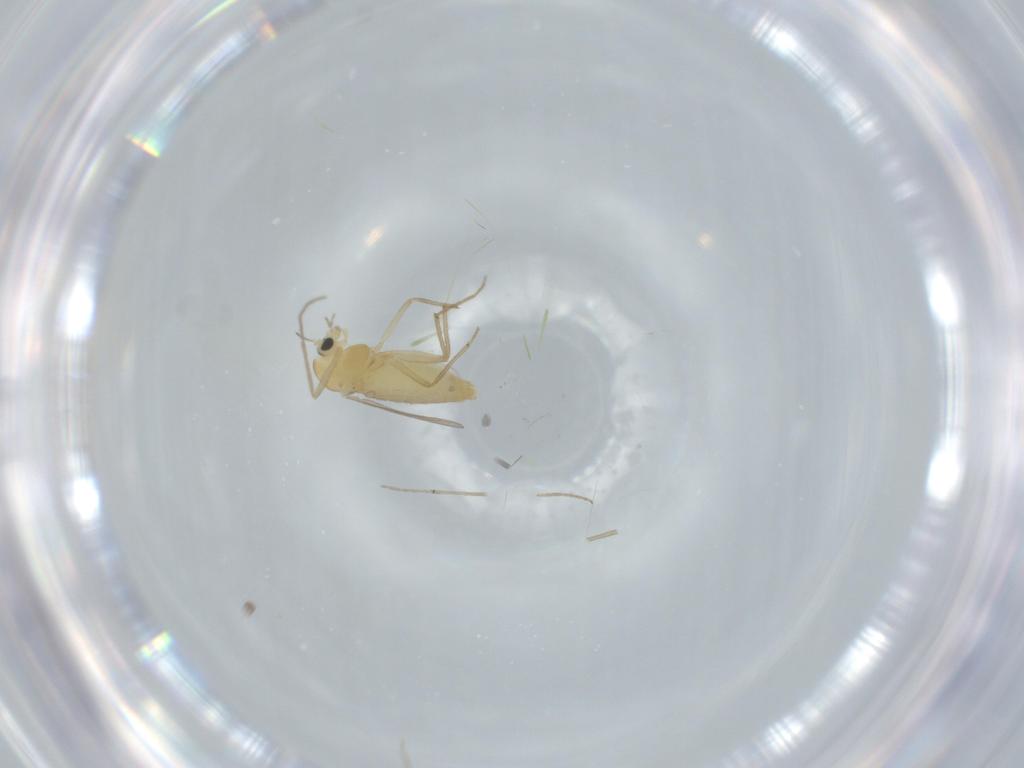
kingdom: Animalia
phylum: Arthropoda
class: Insecta
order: Diptera
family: Chironomidae
